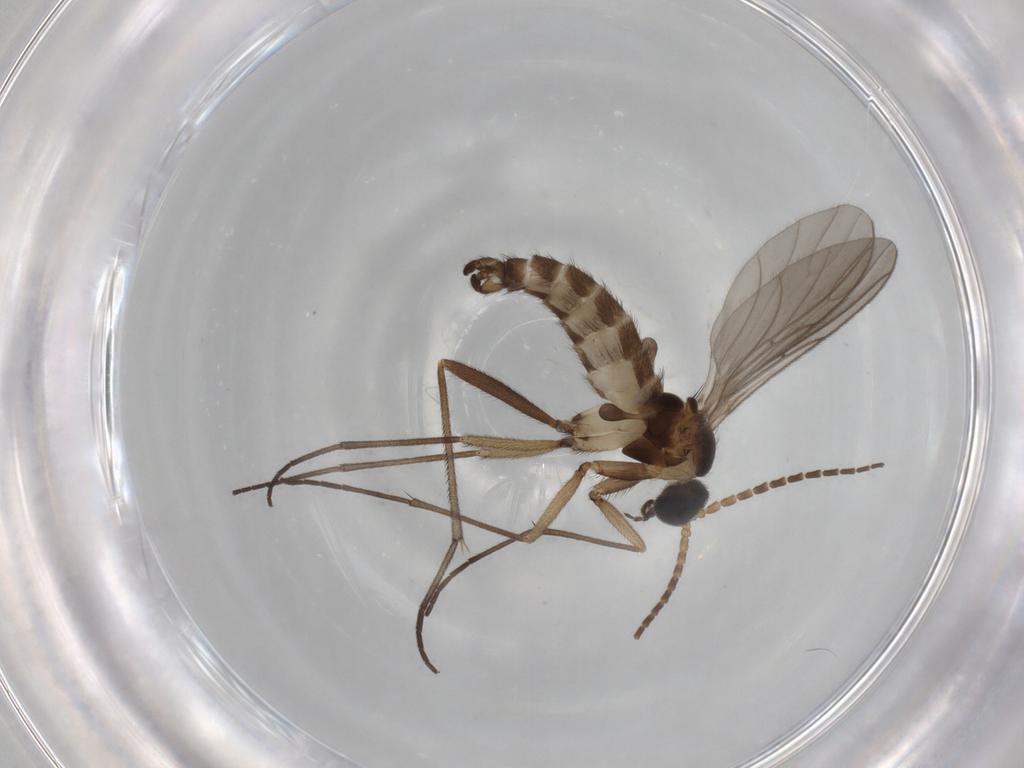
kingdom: Animalia
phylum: Arthropoda
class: Insecta
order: Diptera
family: Sciaridae
